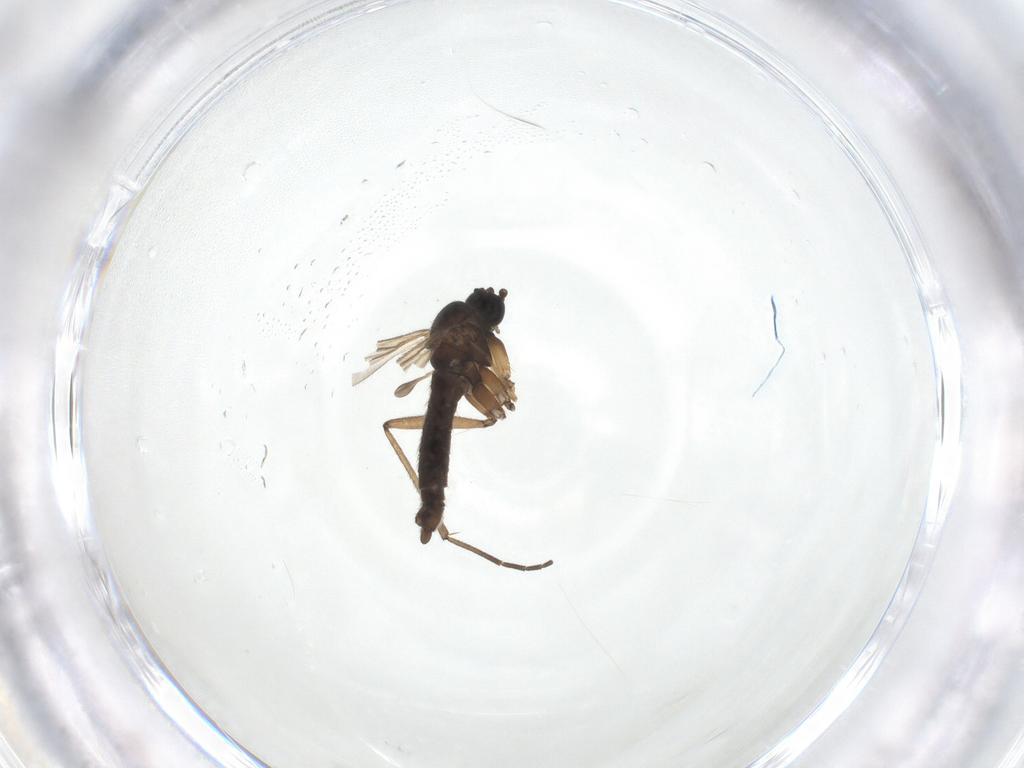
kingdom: Animalia
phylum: Arthropoda
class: Insecta
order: Diptera
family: Sciaridae
